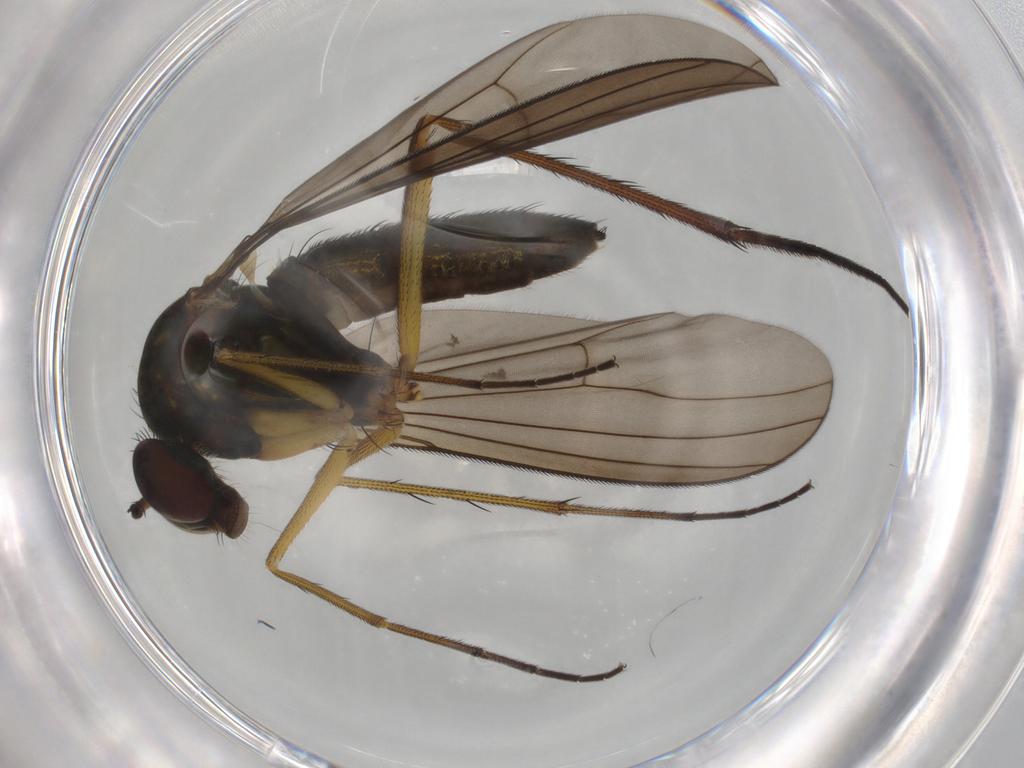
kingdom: Animalia
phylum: Arthropoda
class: Insecta
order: Diptera
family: Dolichopodidae
